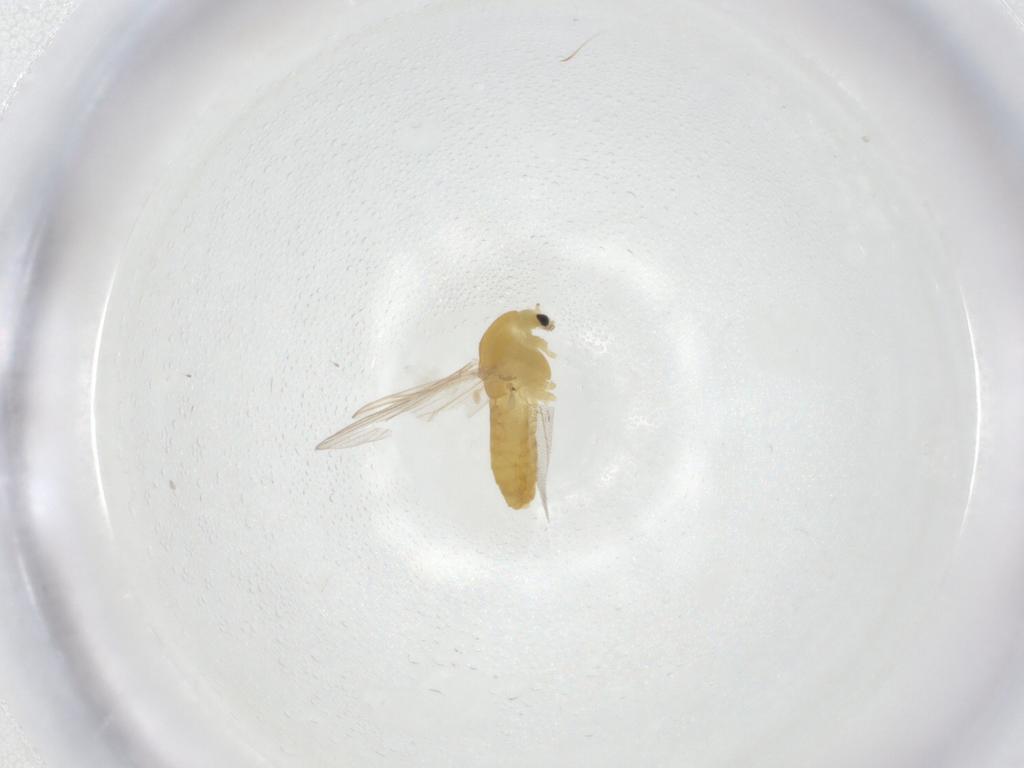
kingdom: Animalia
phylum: Arthropoda
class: Insecta
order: Diptera
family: Chironomidae
